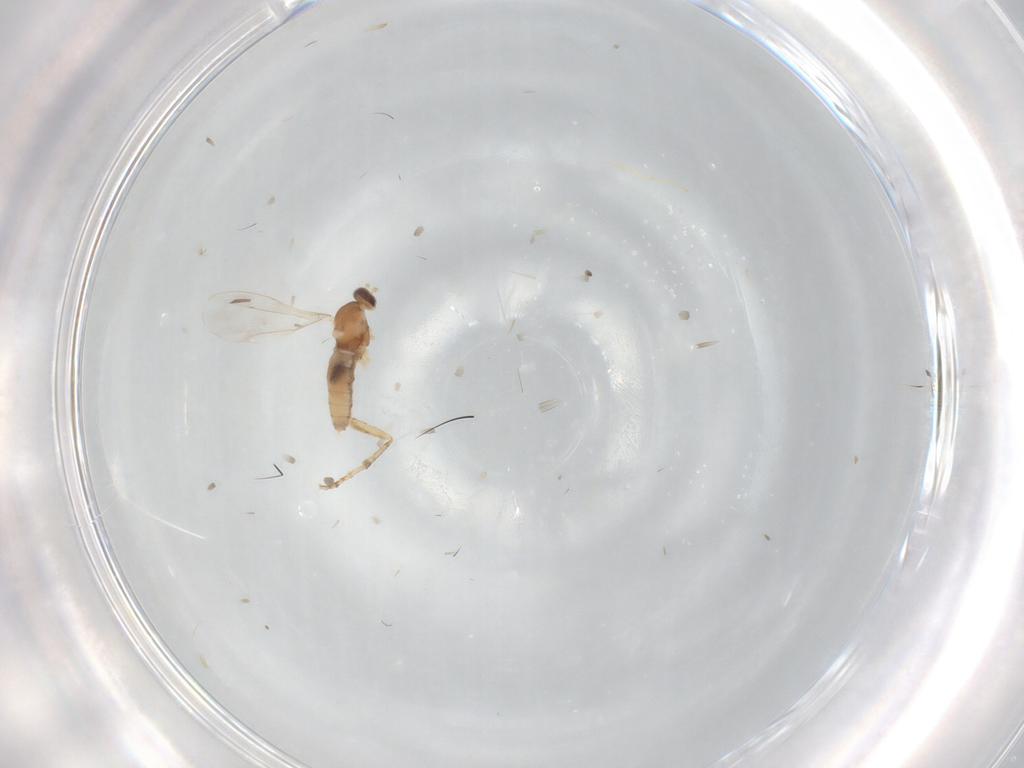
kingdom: Animalia
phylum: Arthropoda
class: Insecta
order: Diptera
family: Cecidomyiidae
